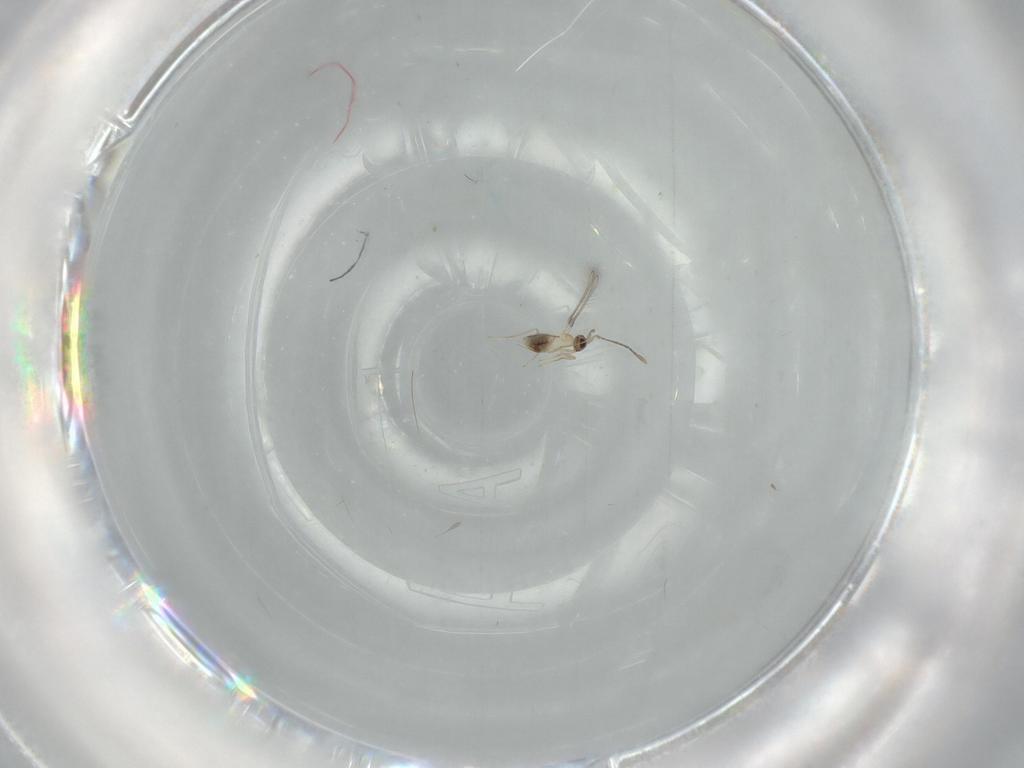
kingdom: Animalia
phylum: Arthropoda
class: Insecta
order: Hymenoptera
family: Mymaridae
